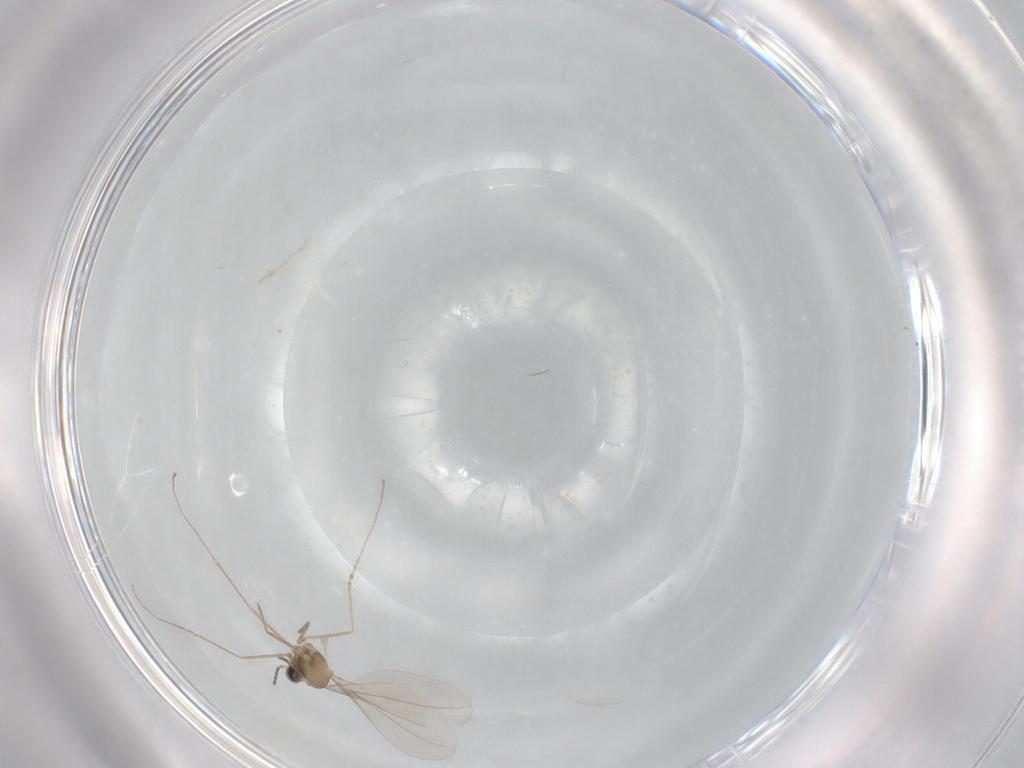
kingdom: Animalia
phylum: Arthropoda
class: Insecta
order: Diptera
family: Cecidomyiidae
